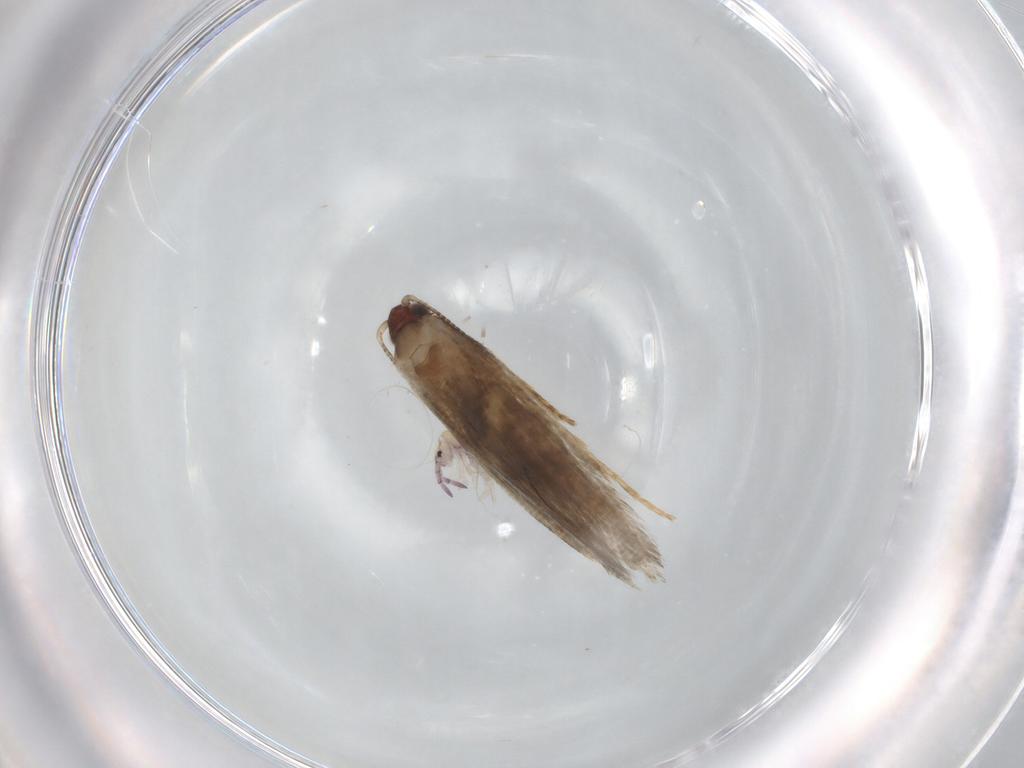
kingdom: Animalia
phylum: Arthropoda
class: Insecta
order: Lepidoptera
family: Tineidae
